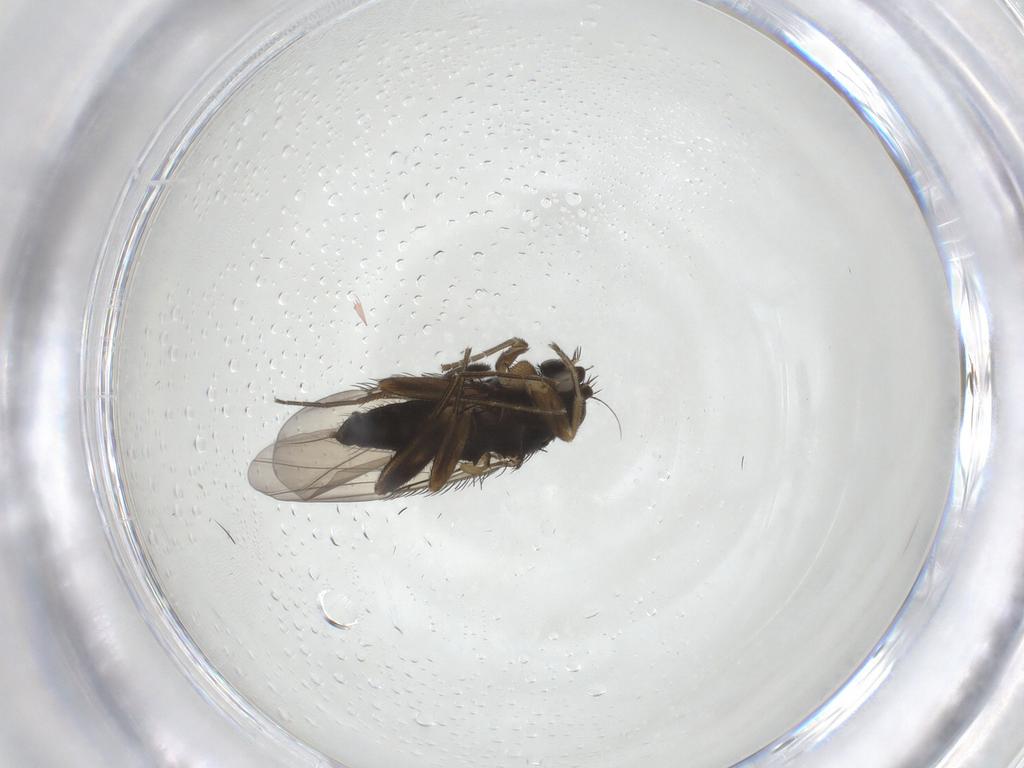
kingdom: Animalia
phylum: Arthropoda
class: Insecta
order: Diptera
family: Phoridae
